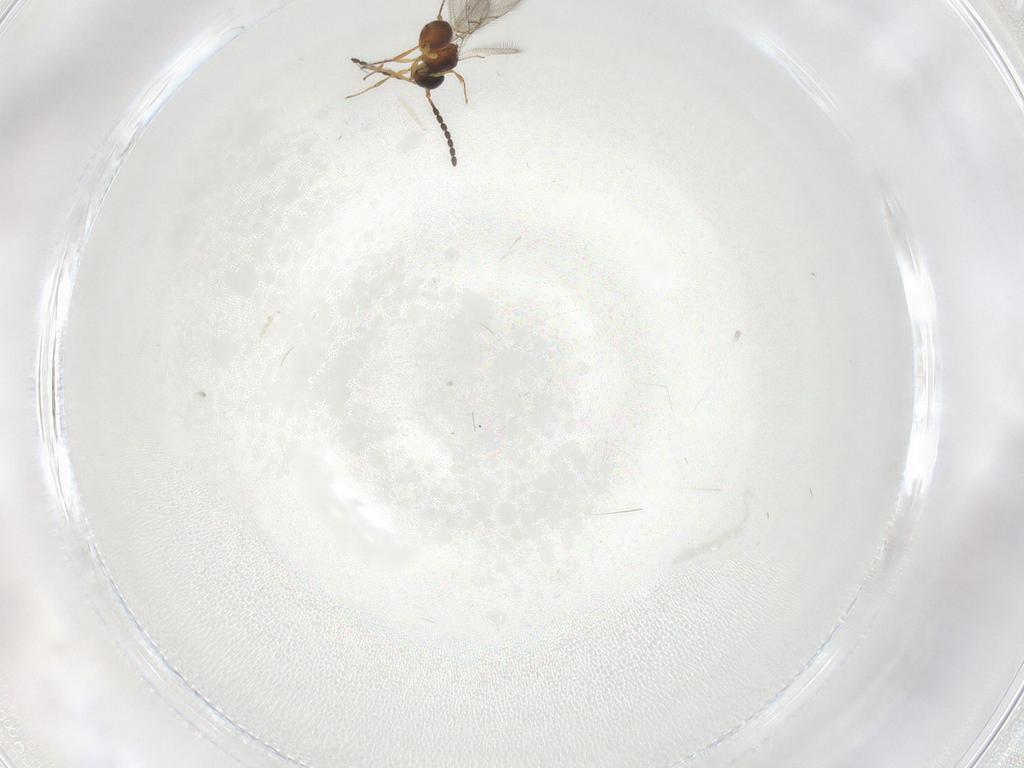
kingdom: Animalia
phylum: Arthropoda
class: Insecta
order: Hymenoptera
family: Figitidae
